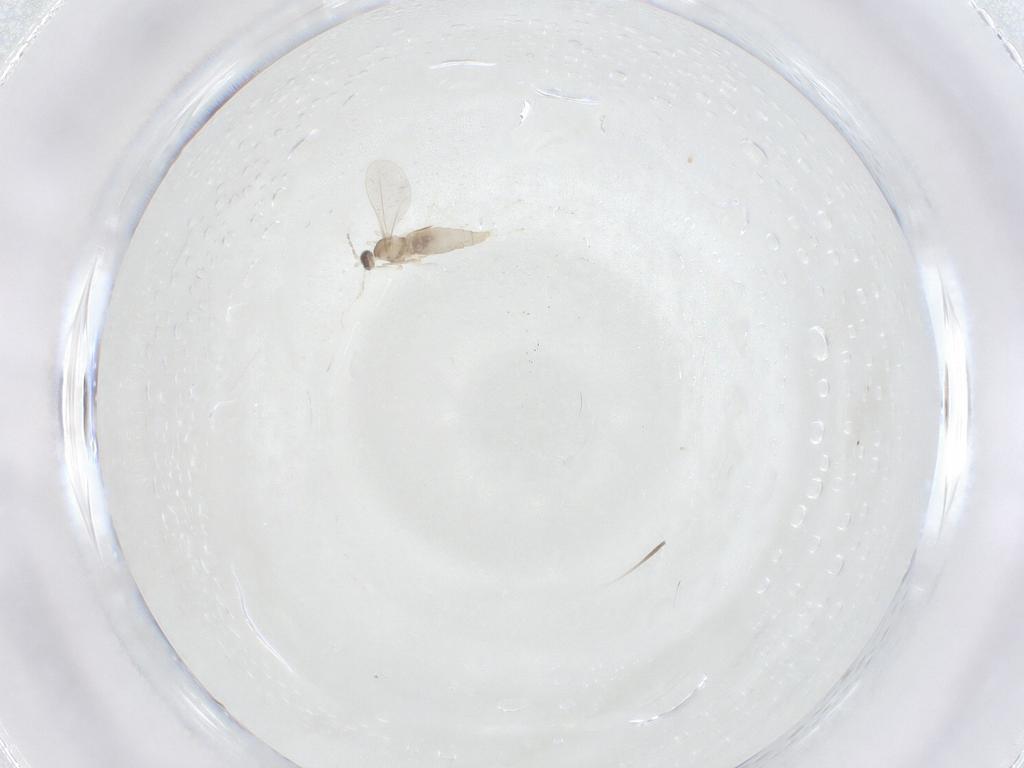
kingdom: Animalia
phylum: Arthropoda
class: Insecta
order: Diptera
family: Cecidomyiidae
